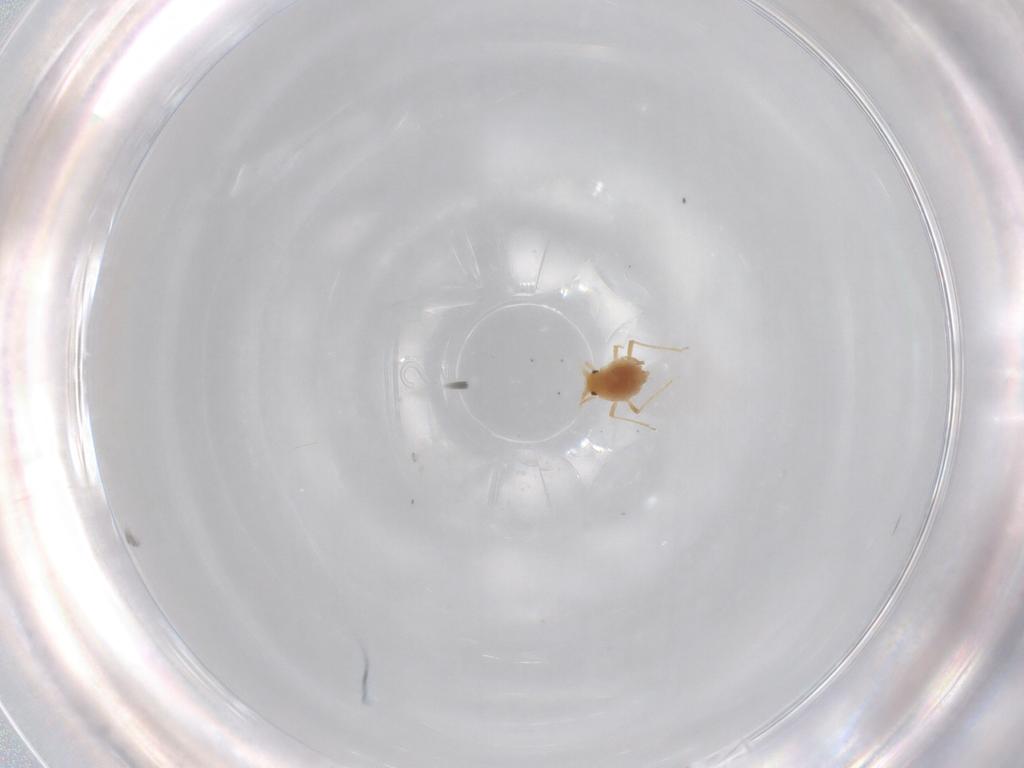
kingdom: Animalia
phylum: Arthropoda
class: Insecta
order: Hemiptera
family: Aphididae
